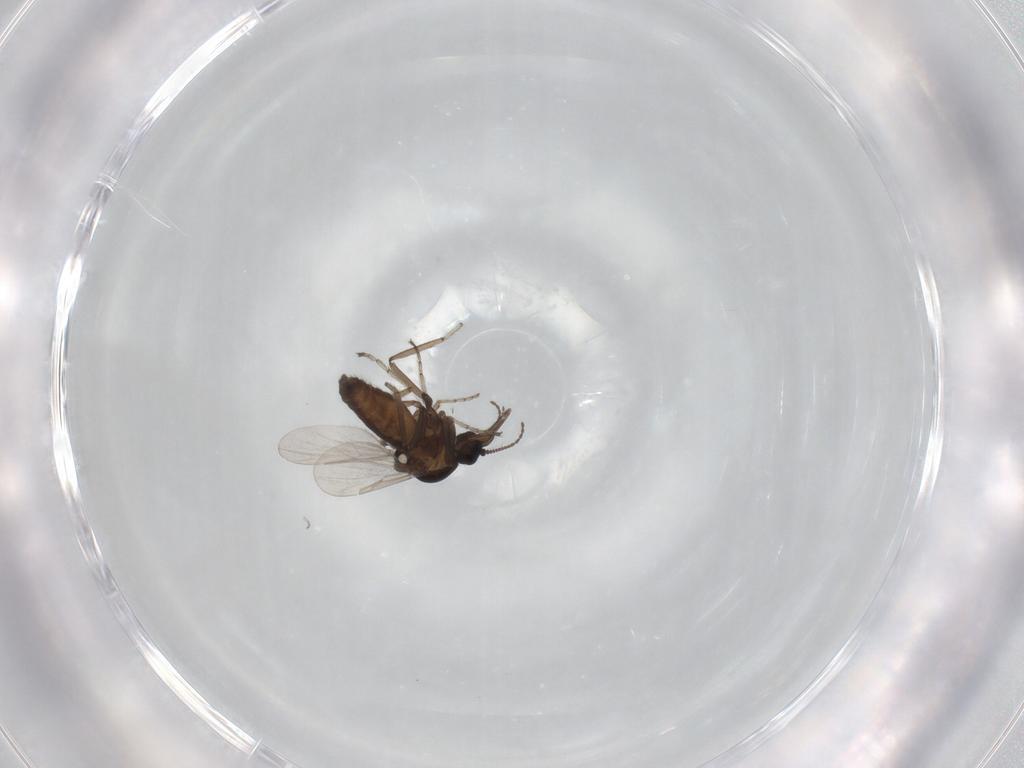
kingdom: Animalia
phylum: Arthropoda
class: Insecta
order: Diptera
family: Ceratopogonidae
